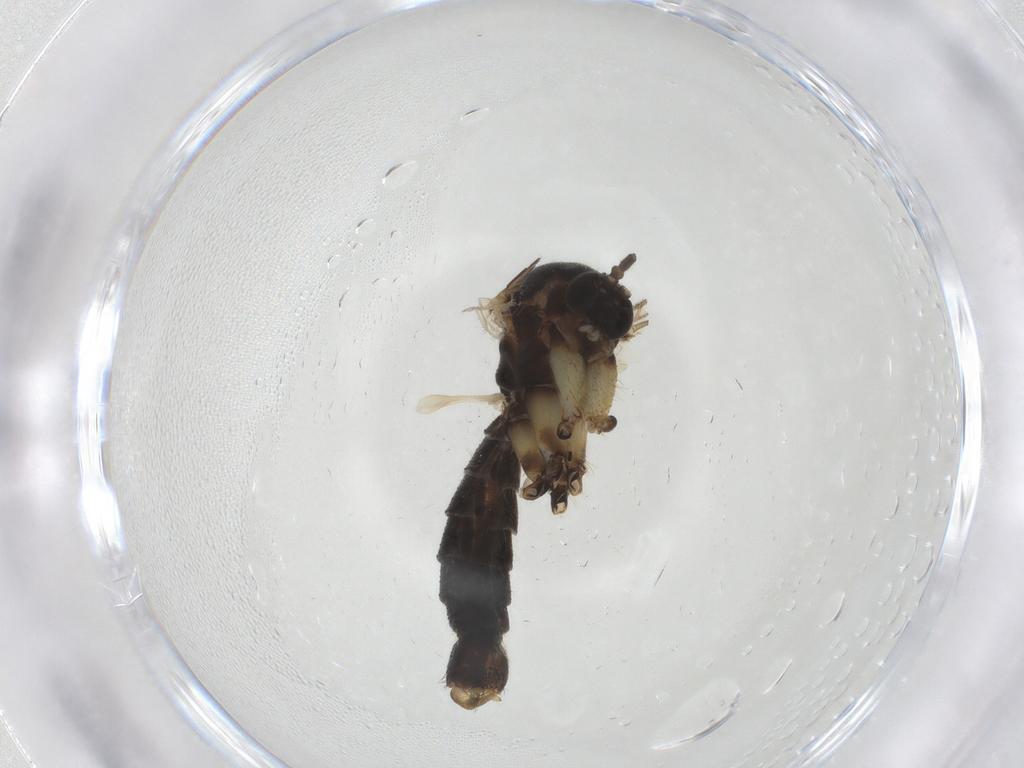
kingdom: Animalia
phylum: Arthropoda
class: Insecta
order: Diptera
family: Mycetophilidae
